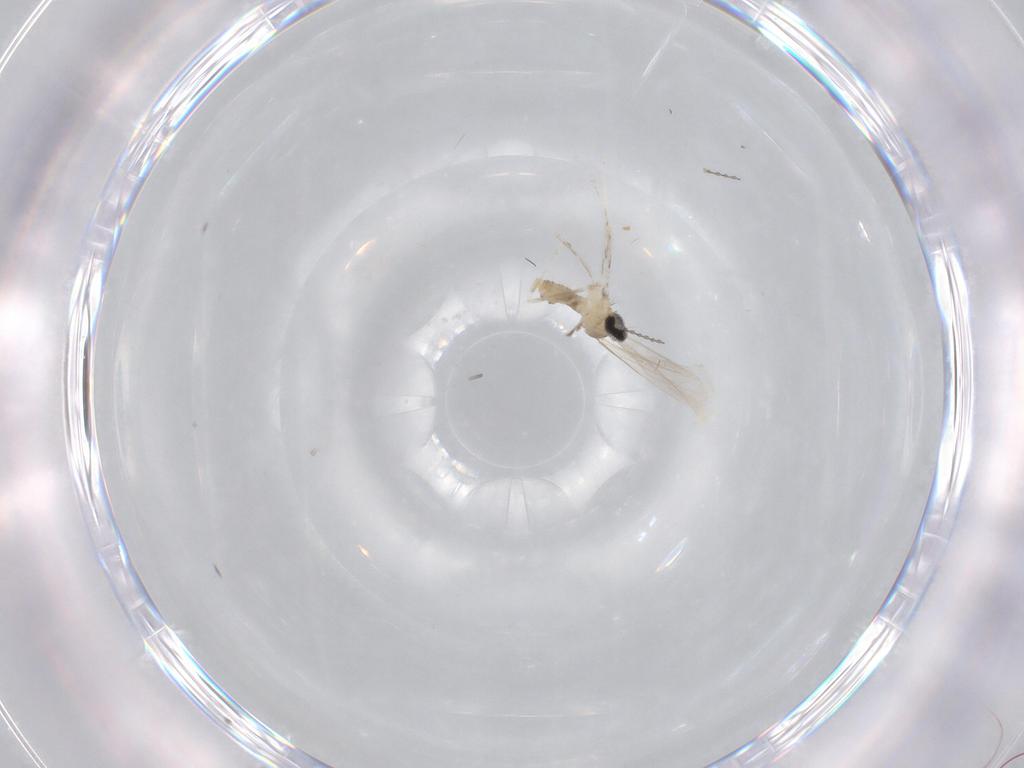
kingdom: Animalia
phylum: Arthropoda
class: Insecta
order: Diptera
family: Cecidomyiidae
